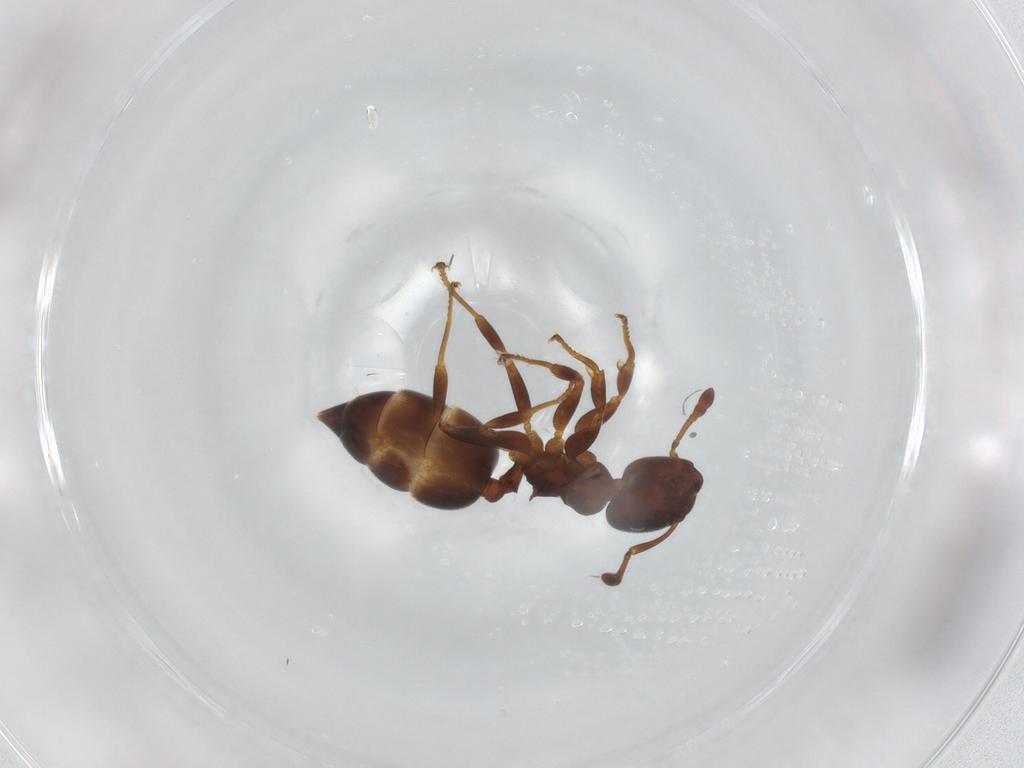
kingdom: Animalia
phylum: Arthropoda
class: Insecta
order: Hymenoptera
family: Formicidae
